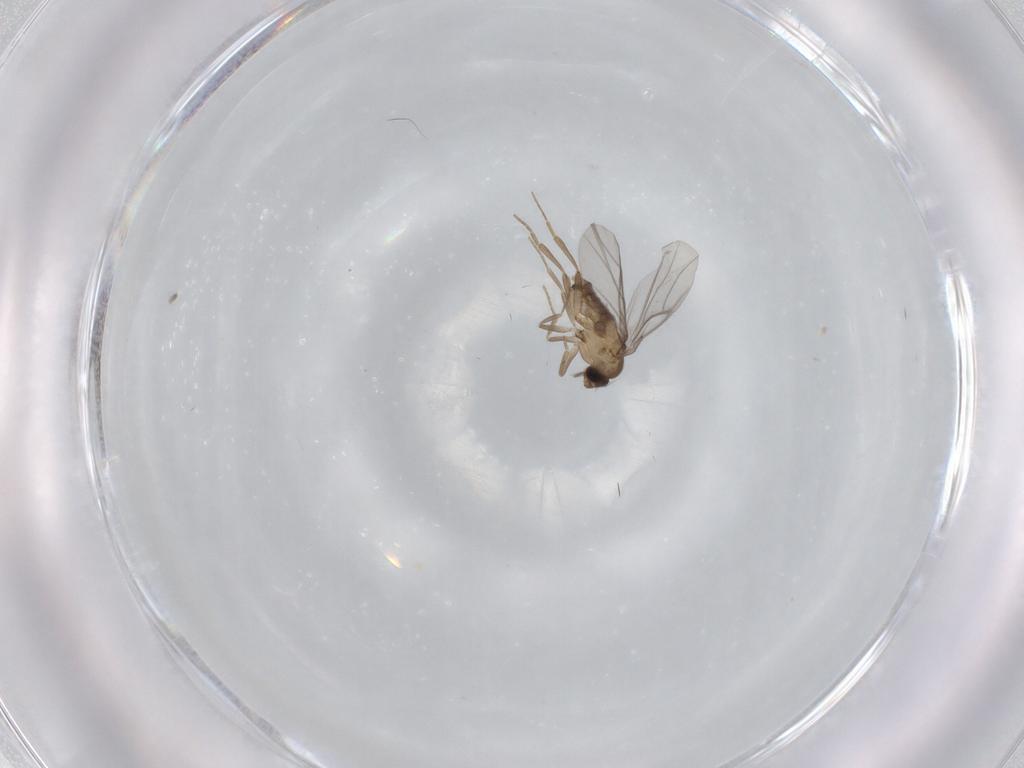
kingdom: Animalia
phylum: Arthropoda
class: Insecta
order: Diptera
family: Cecidomyiidae
